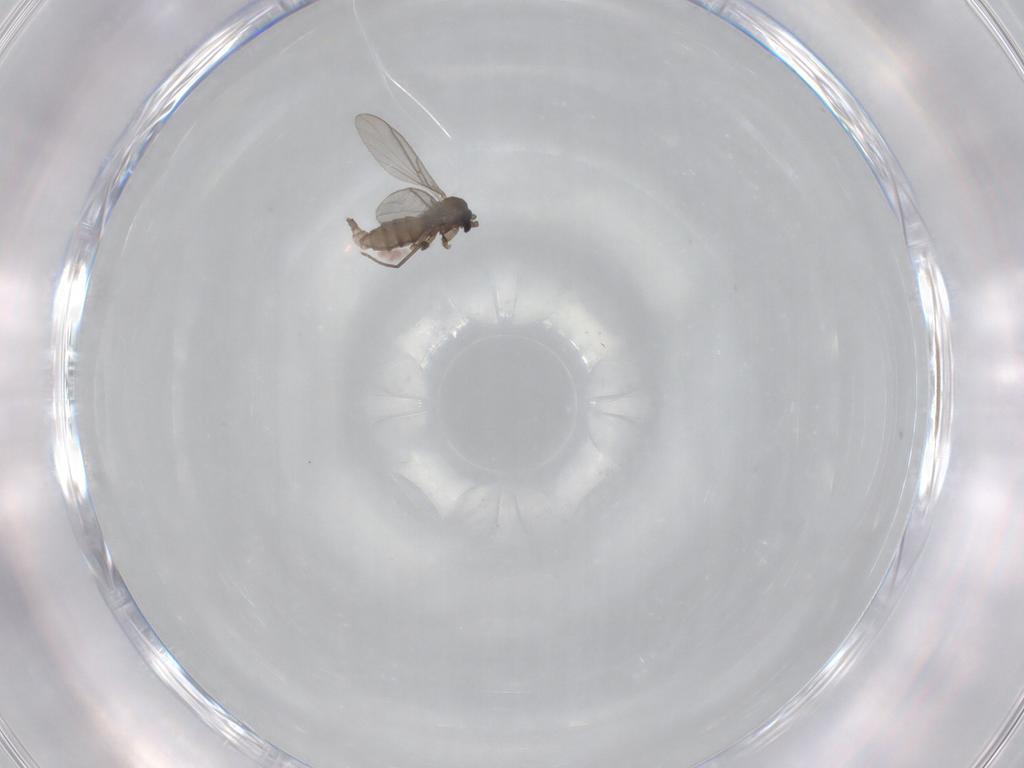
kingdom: Animalia
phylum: Arthropoda
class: Insecta
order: Diptera
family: Sciaridae
